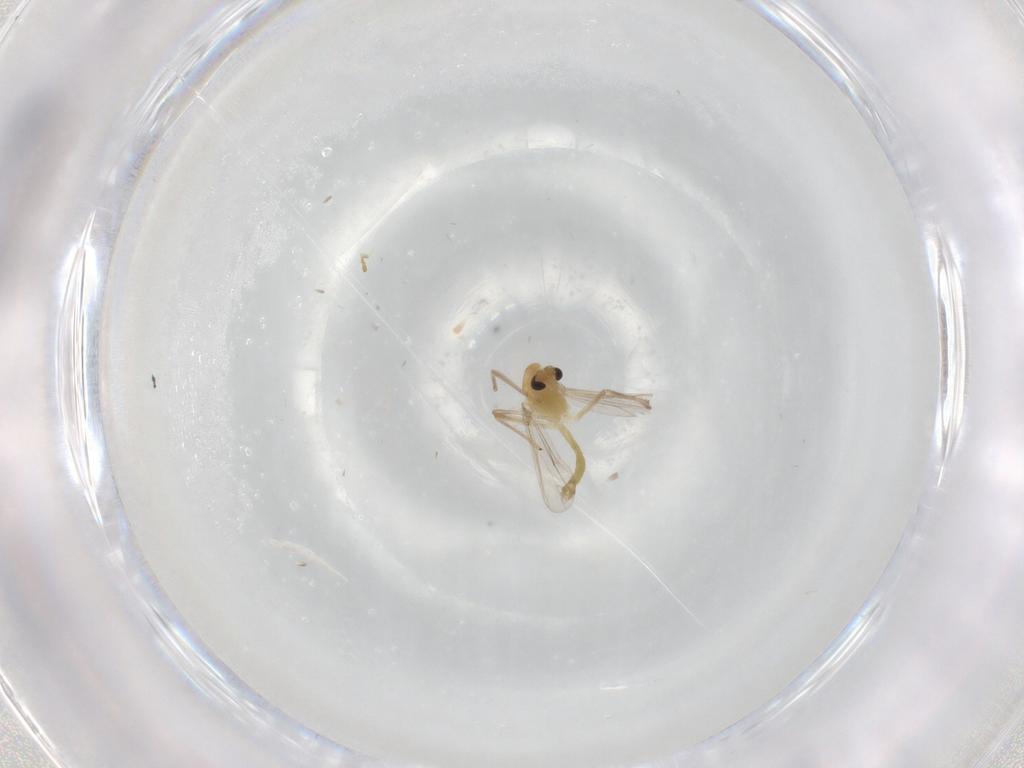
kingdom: Animalia
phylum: Arthropoda
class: Insecta
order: Diptera
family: Chironomidae
